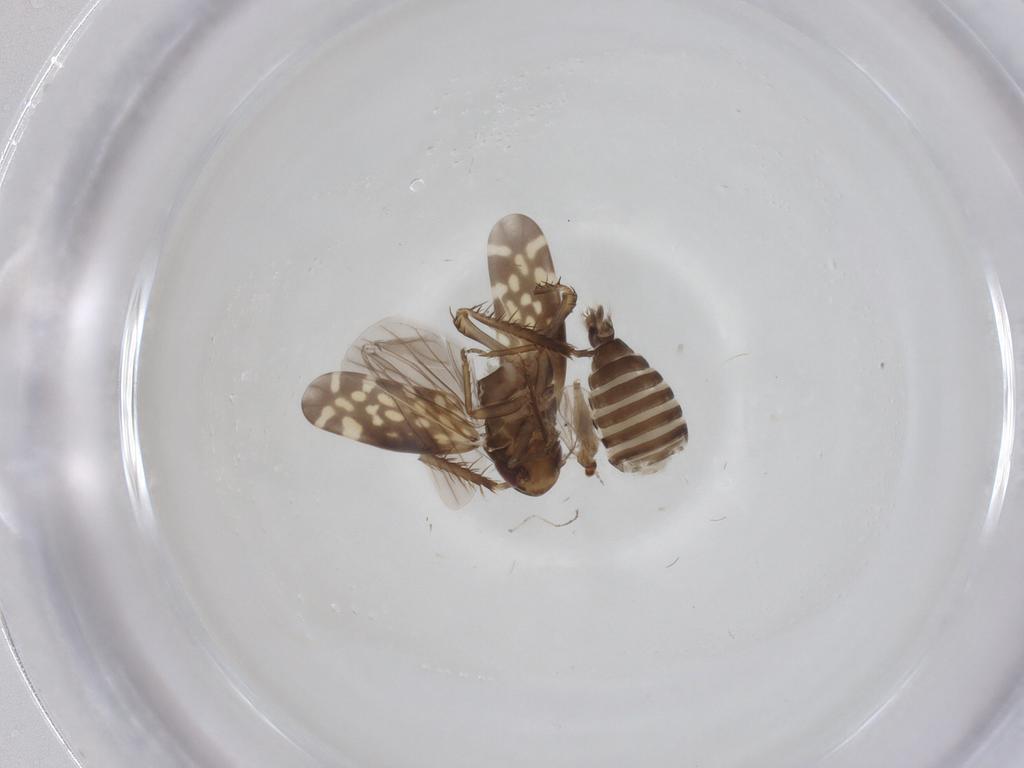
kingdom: Animalia
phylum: Arthropoda
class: Insecta
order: Hemiptera
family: Cicadellidae
